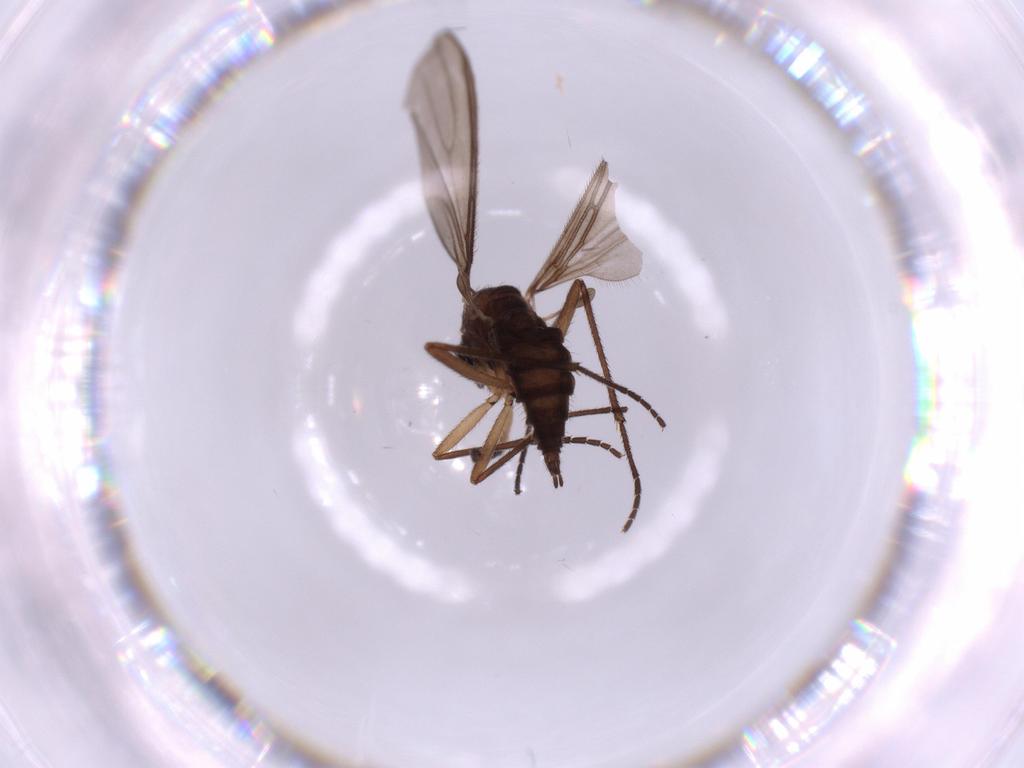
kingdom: Animalia
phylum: Arthropoda
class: Insecta
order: Diptera
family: Sciaridae
